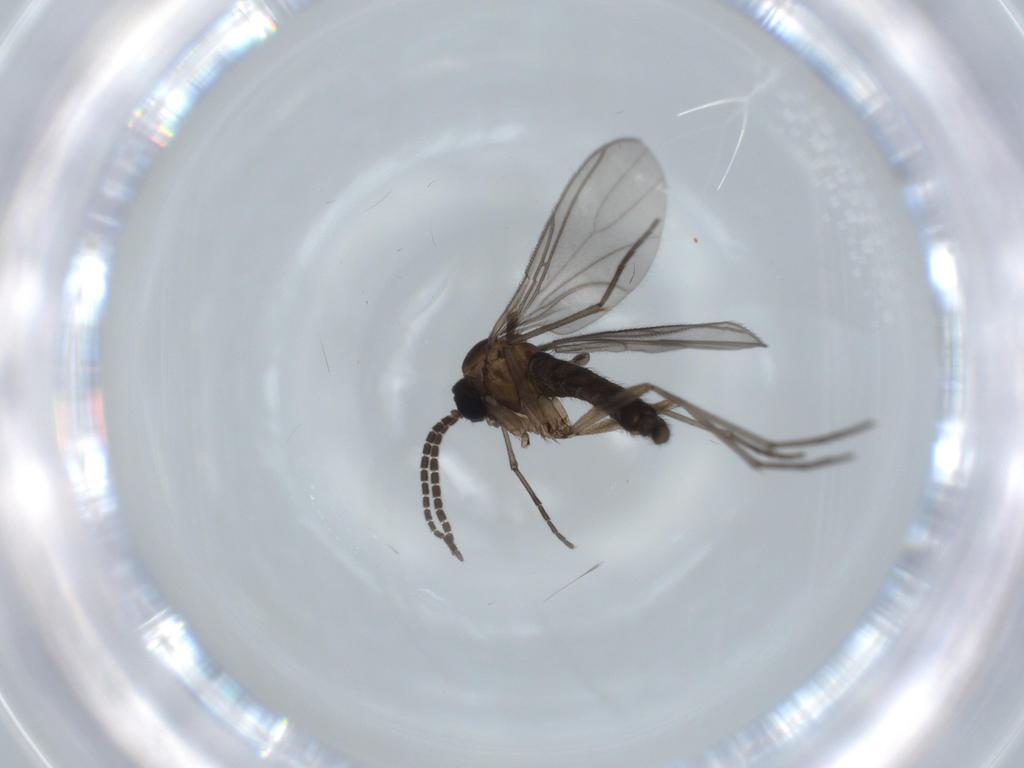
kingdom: Animalia
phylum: Arthropoda
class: Insecta
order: Diptera
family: Sciaridae
